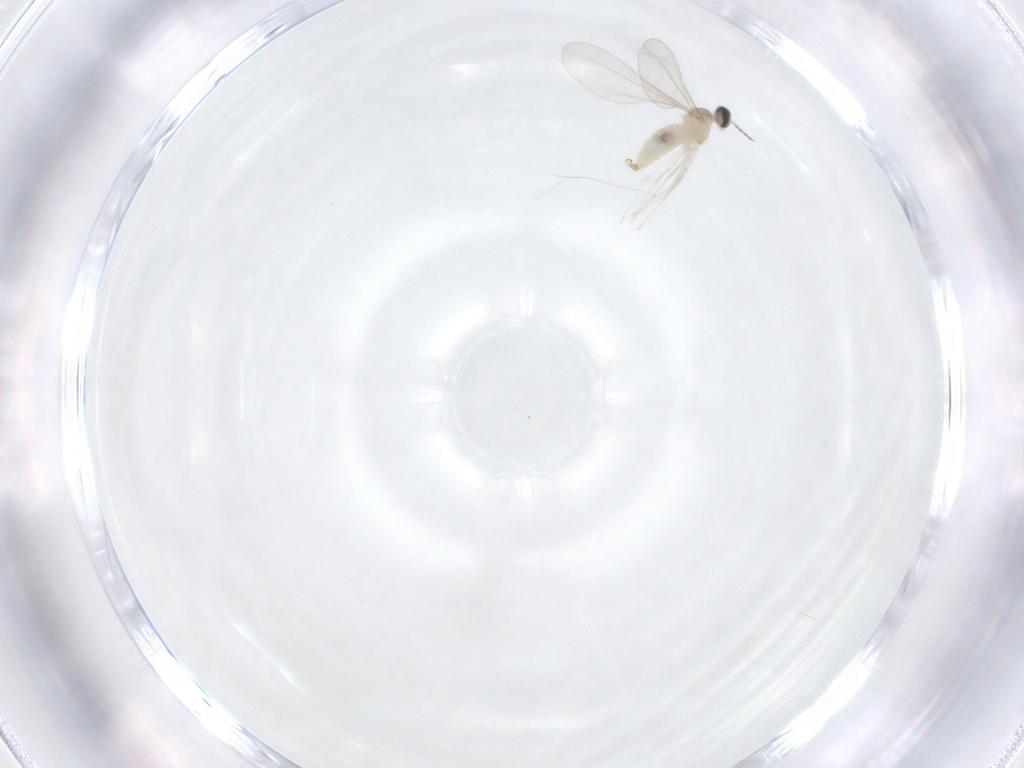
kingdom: Animalia
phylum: Arthropoda
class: Insecta
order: Diptera
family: Cecidomyiidae
